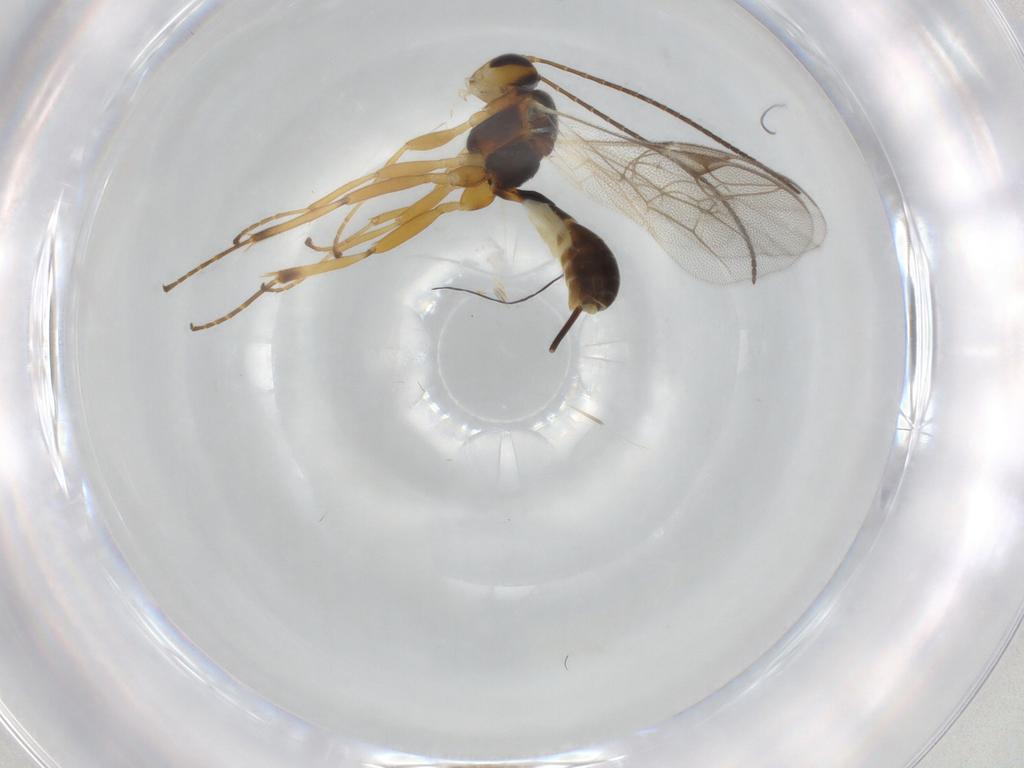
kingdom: Animalia
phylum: Arthropoda
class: Insecta
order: Hymenoptera
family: Ichneumonidae
